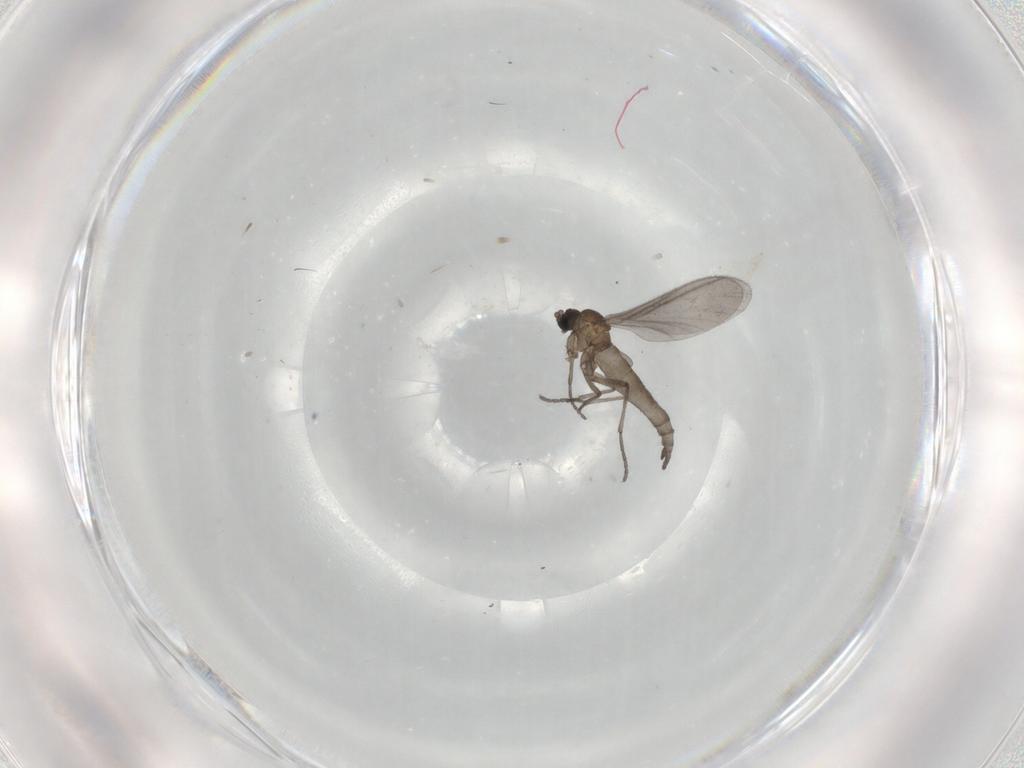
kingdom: Animalia
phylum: Arthropoda
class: Insecta
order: Diptera
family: Sciaridae
